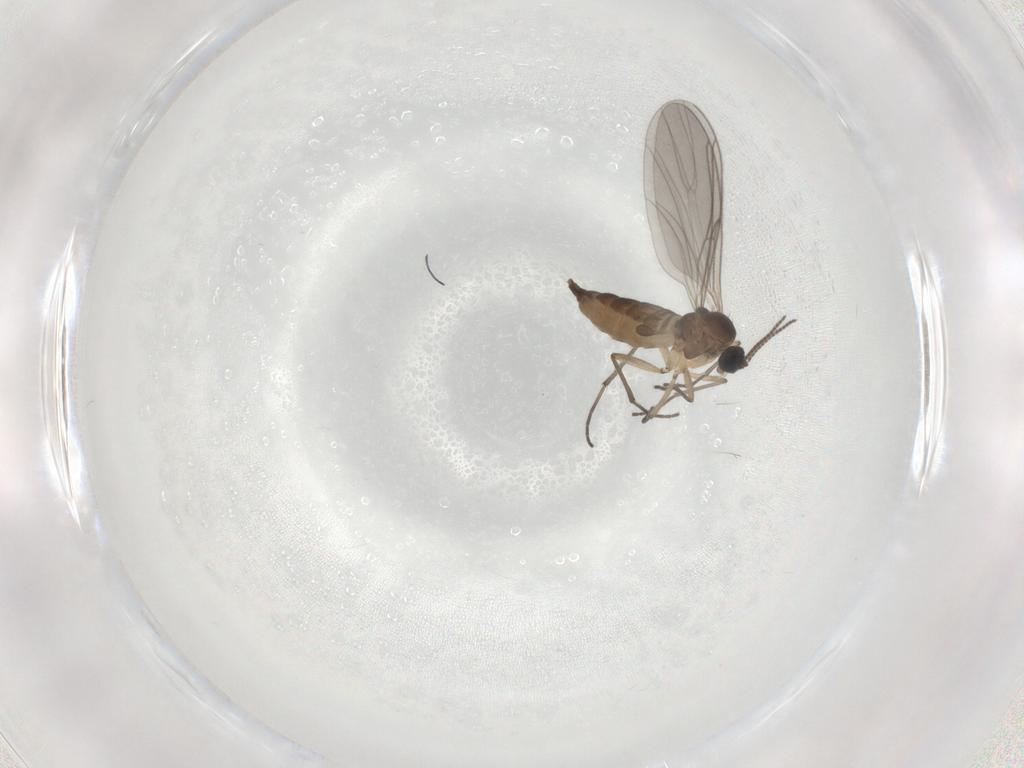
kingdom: Animalia
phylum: Arthropoda
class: Insecta
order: Diptera
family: Sciaridae
